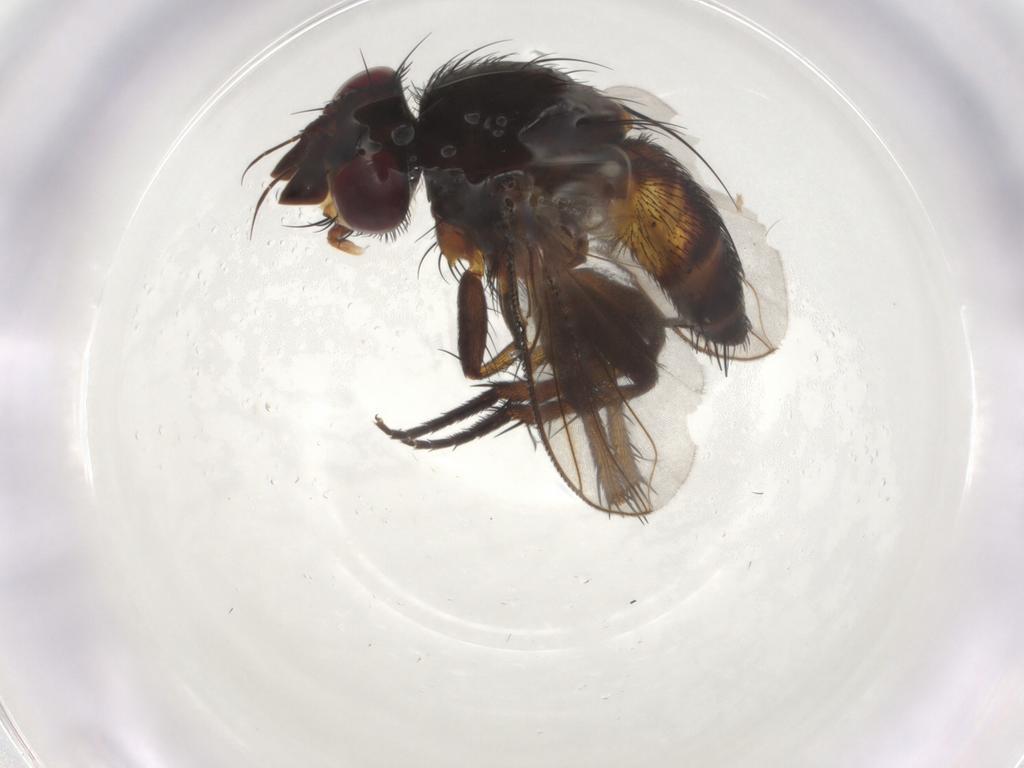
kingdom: Animalia
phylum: Arthropoda
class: Insecta
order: Diptera
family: Tachinidae
